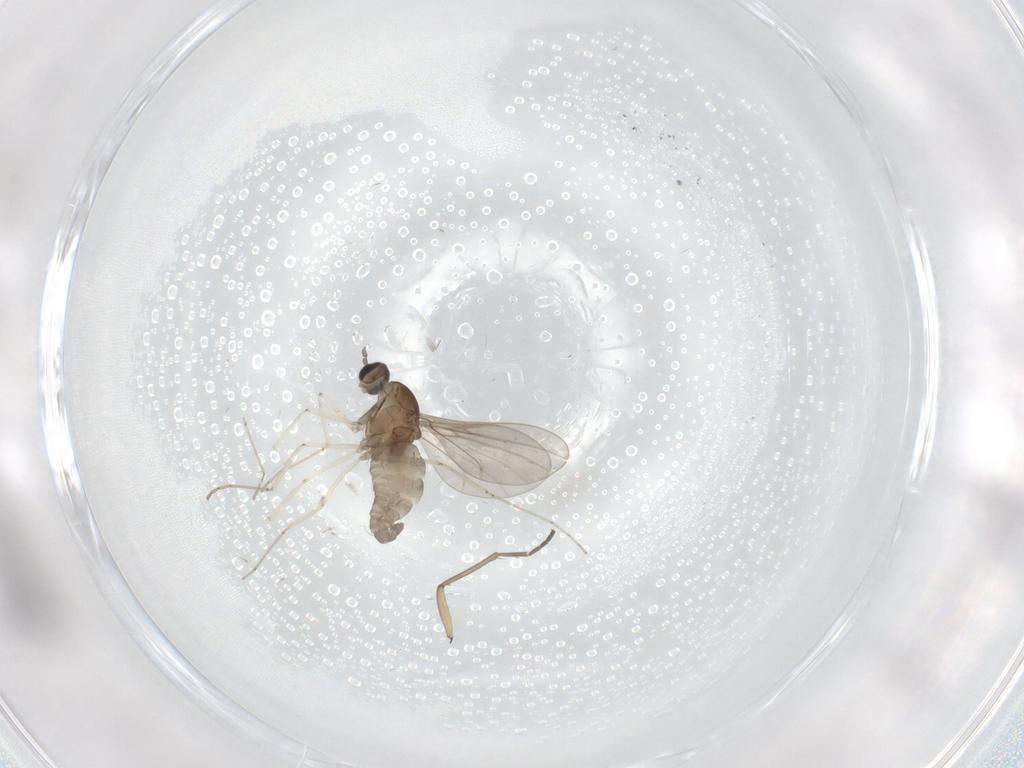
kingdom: Animalia
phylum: Arthropoda
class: Insecta
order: Diptera
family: Cecidomyiidae
